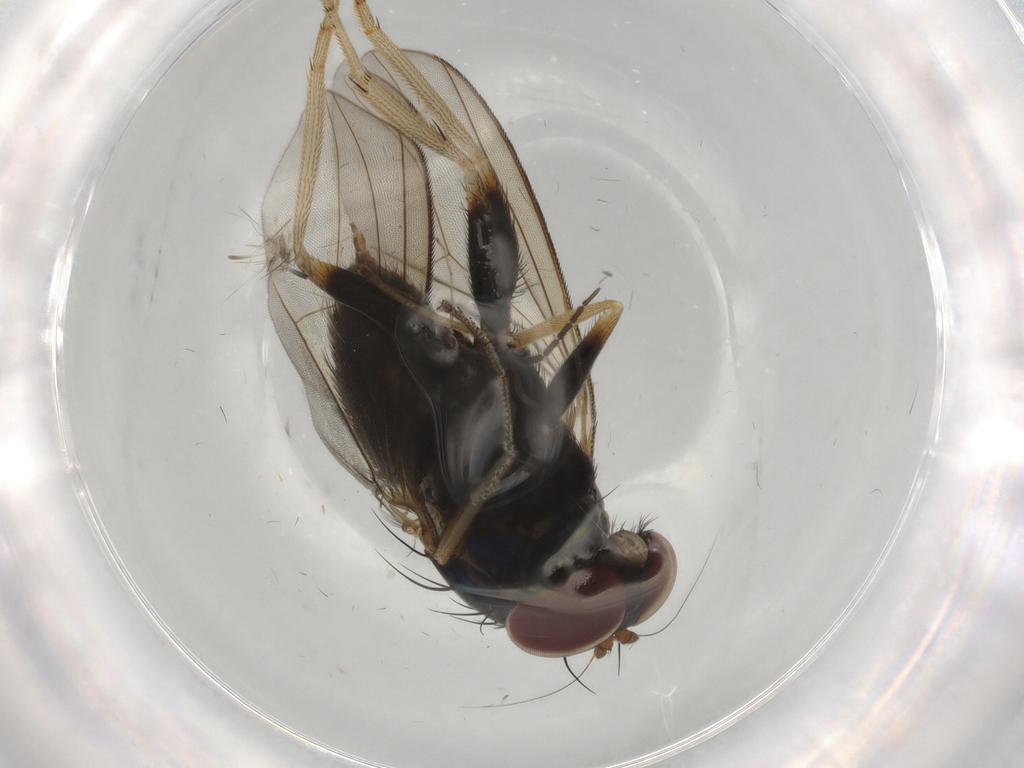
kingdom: Animalia
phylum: Arthropoda
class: Insecta
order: Diptera
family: Dolichopodidae
